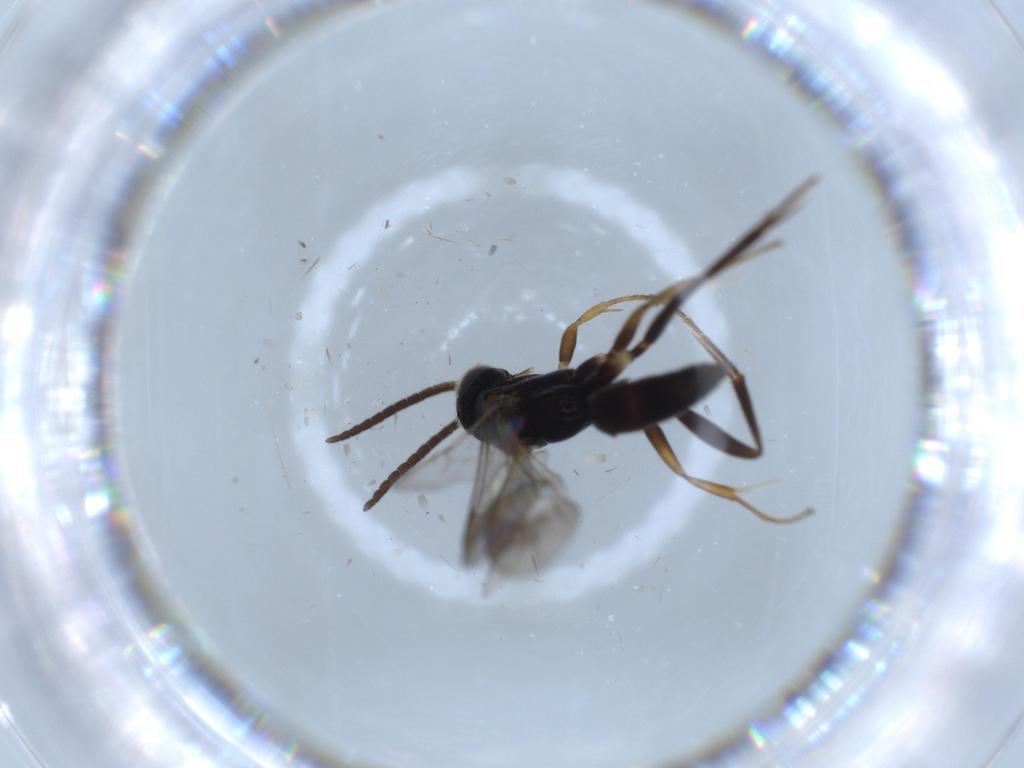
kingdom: Animalia
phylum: Arthropoda
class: Insecta
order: Hymenoptera
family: Pompilidae
